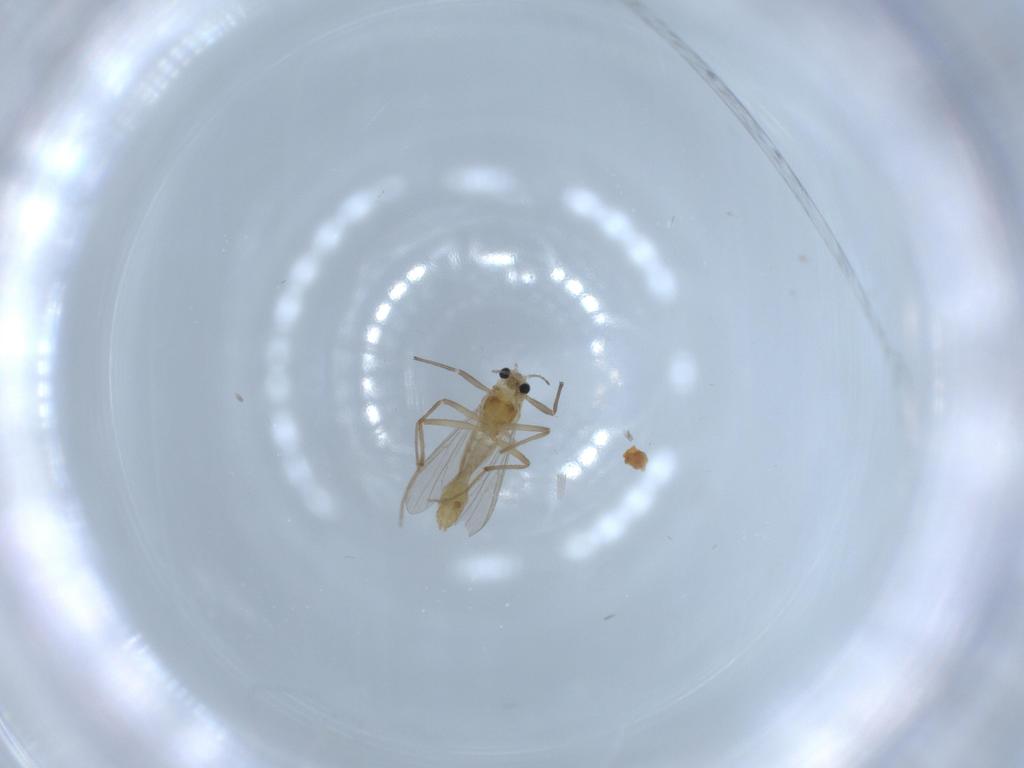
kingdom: Animalia
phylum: Arthropoda
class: Insecta
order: Diptera
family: Chironomidae
